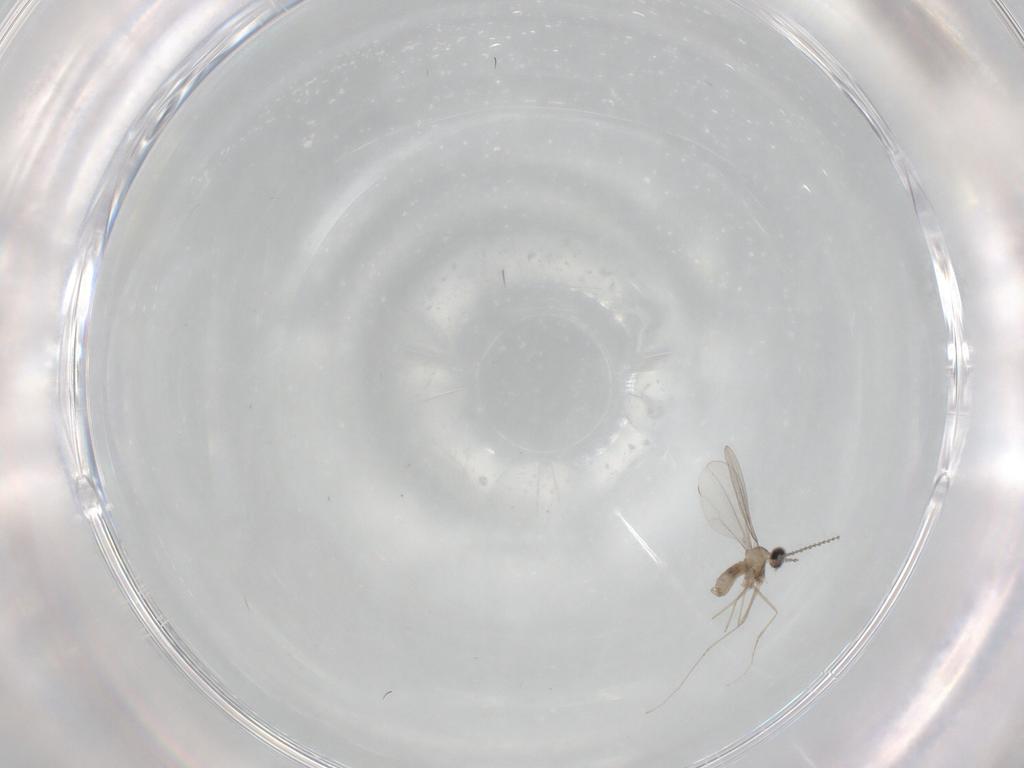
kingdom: Animalia
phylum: Arthropoda
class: Insecta
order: Diptera
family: Cecidomyiidae
